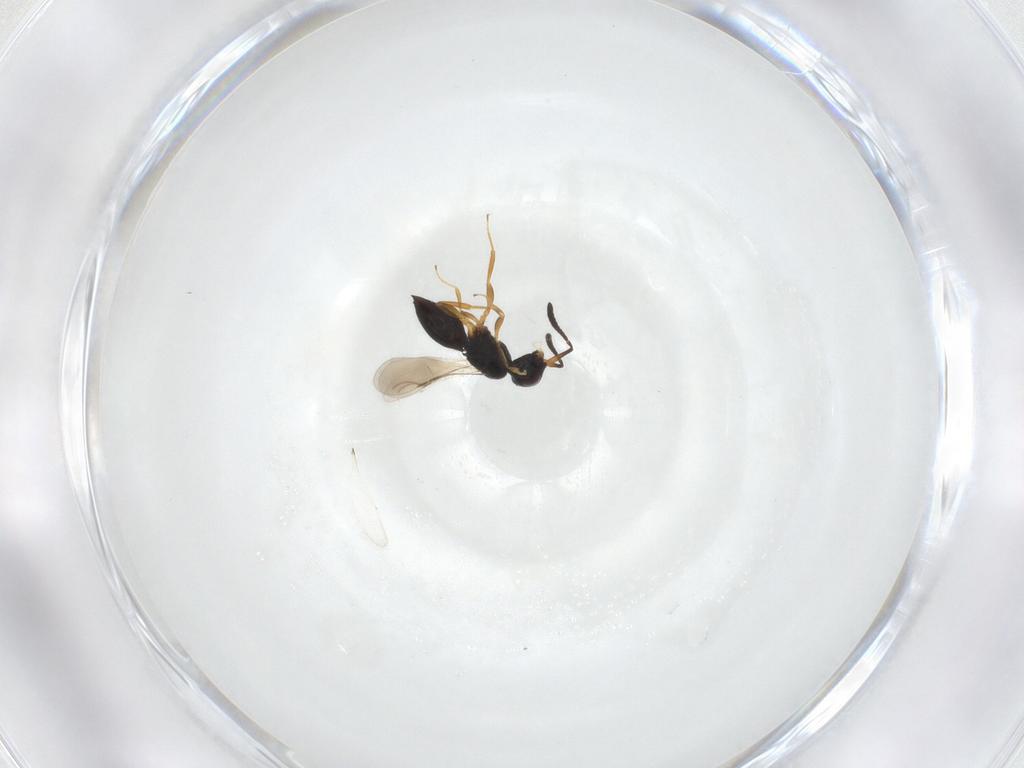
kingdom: Animalia
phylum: Arthropoda
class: Insecta
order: Hymenoptera
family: Ceraphronidae
